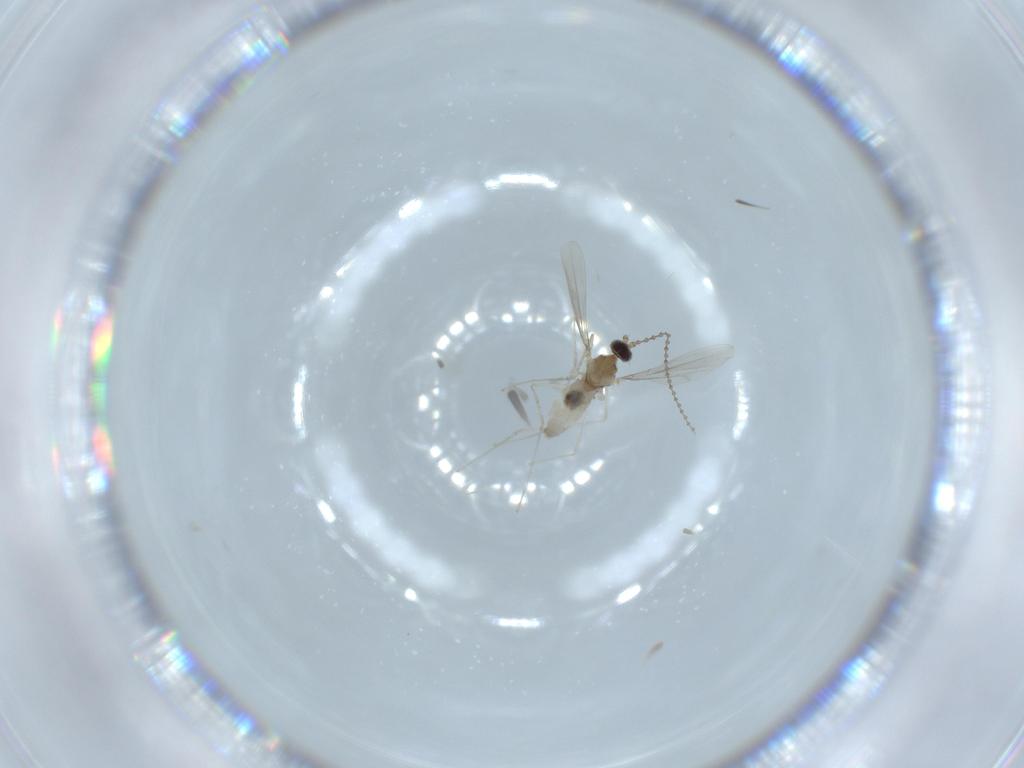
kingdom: Animalia
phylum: Arthropoda
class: Insecta
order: Diptera
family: Cecidomyiidae
